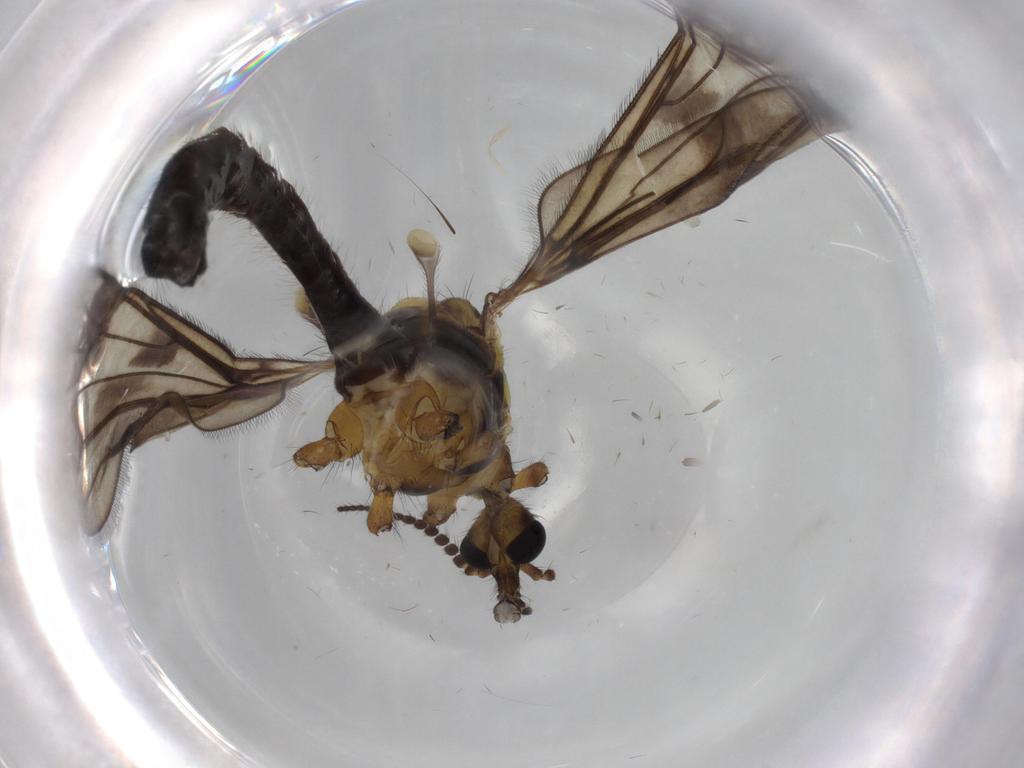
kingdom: Animalia
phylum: Arthropoda
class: Insecta
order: Diptera
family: Limoniidae
